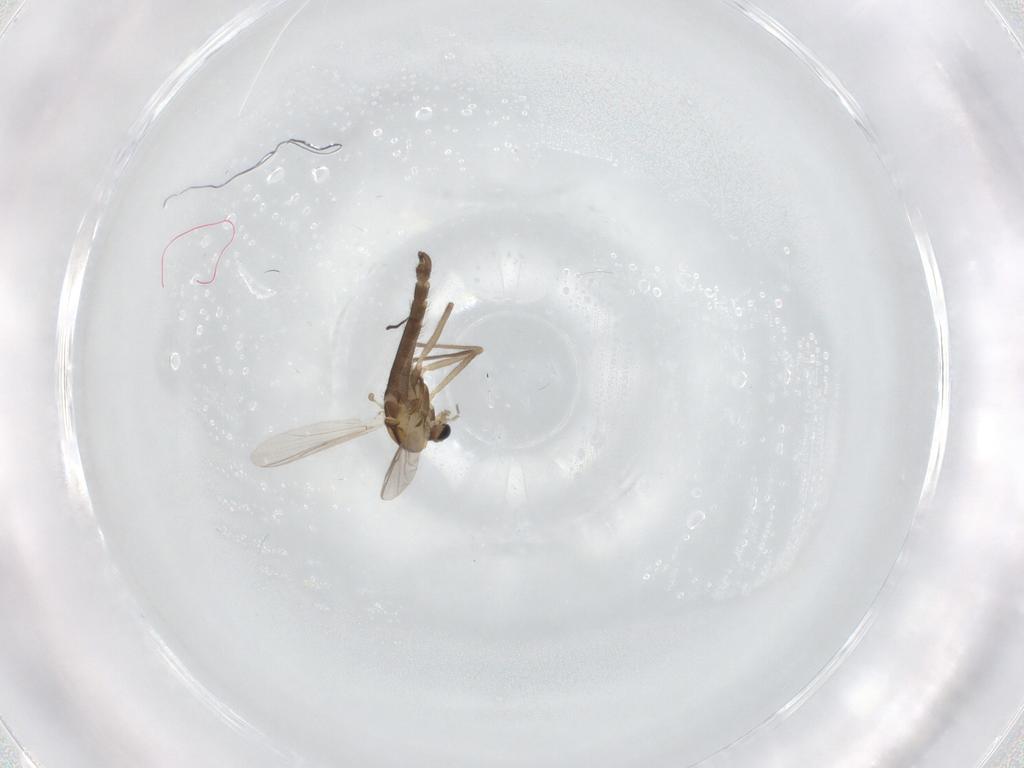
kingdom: Animalia
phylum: Arthropoda
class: Insecta
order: Diptera
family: Chironomidae
